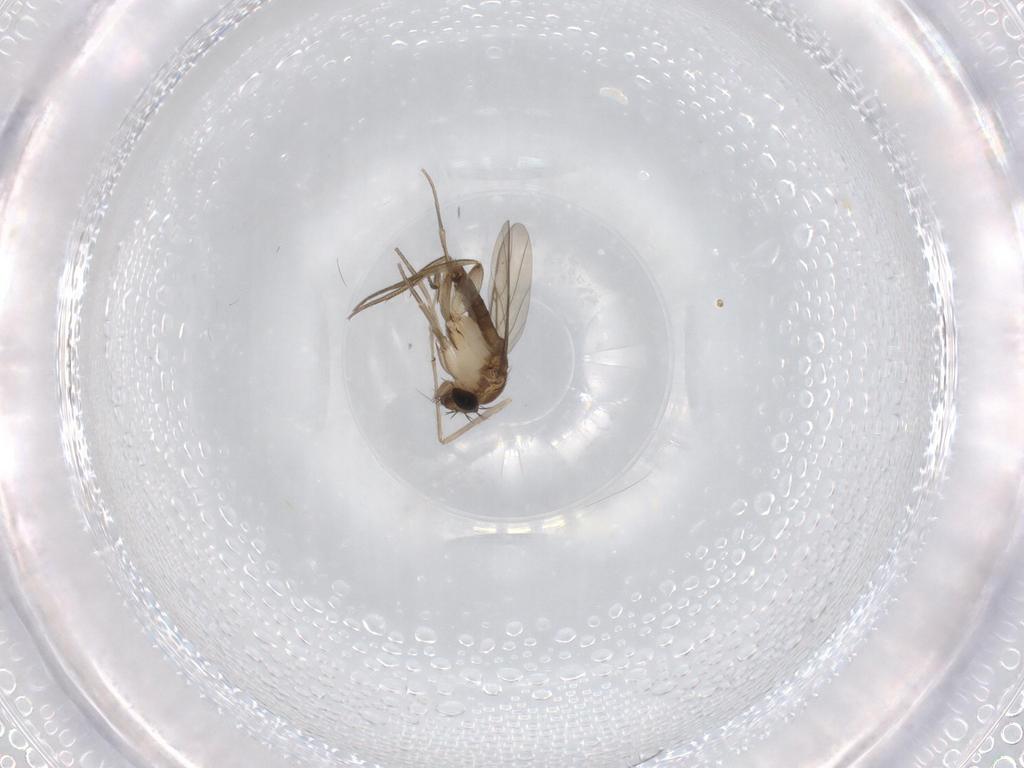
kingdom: Animalia
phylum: Arthropoda
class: Insecta
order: Diptera
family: Phoridae
